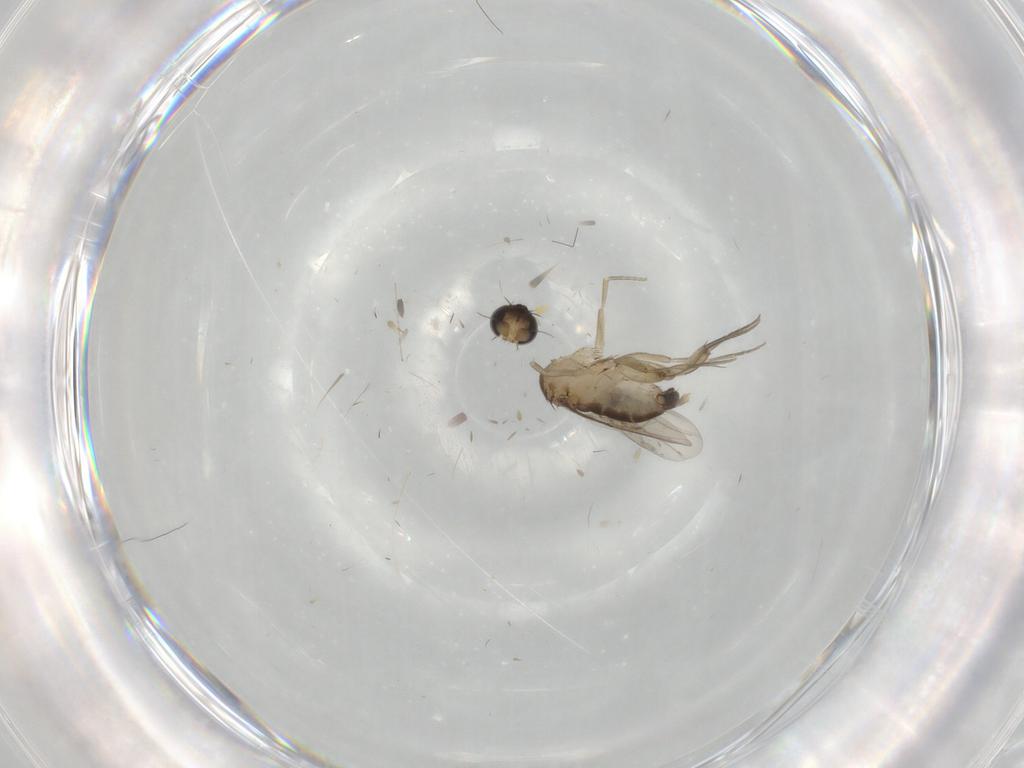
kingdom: Animalia
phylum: Arthropoda
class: Insecta
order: Diptera
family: Phoridae
